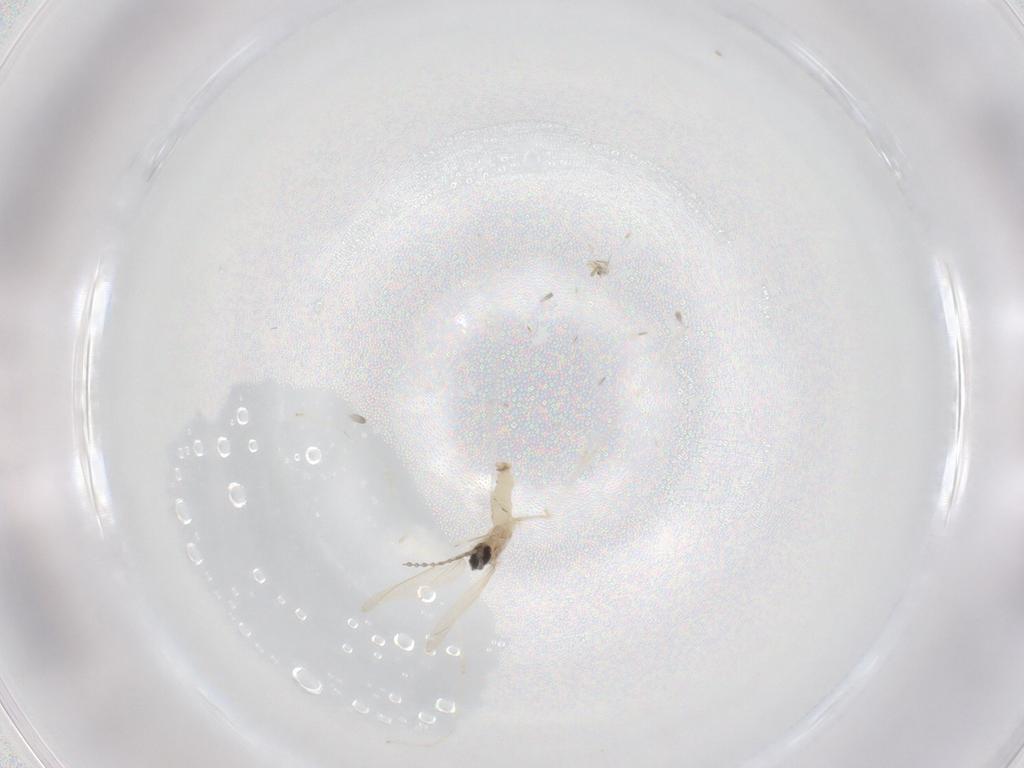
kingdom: Animalia
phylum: Arthropoda
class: Insecta
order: Diptera
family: Cecidomyiidae
